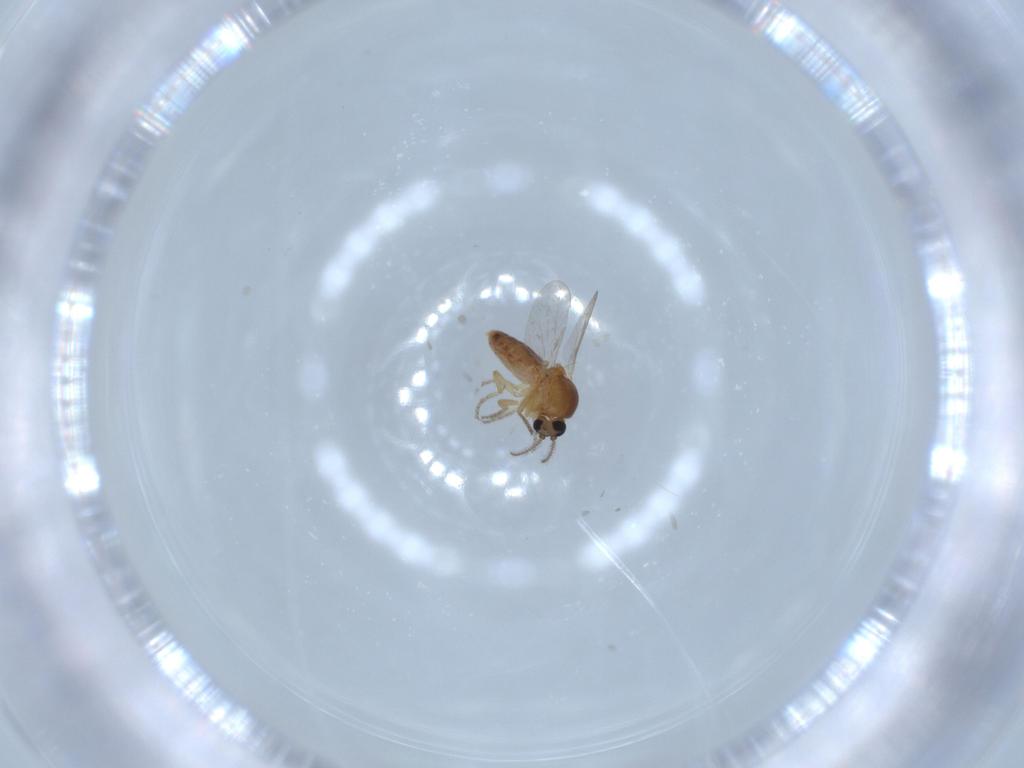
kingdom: Animalia
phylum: Arthropoda
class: Insecta
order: Diptera
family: Ceratopogonidae
